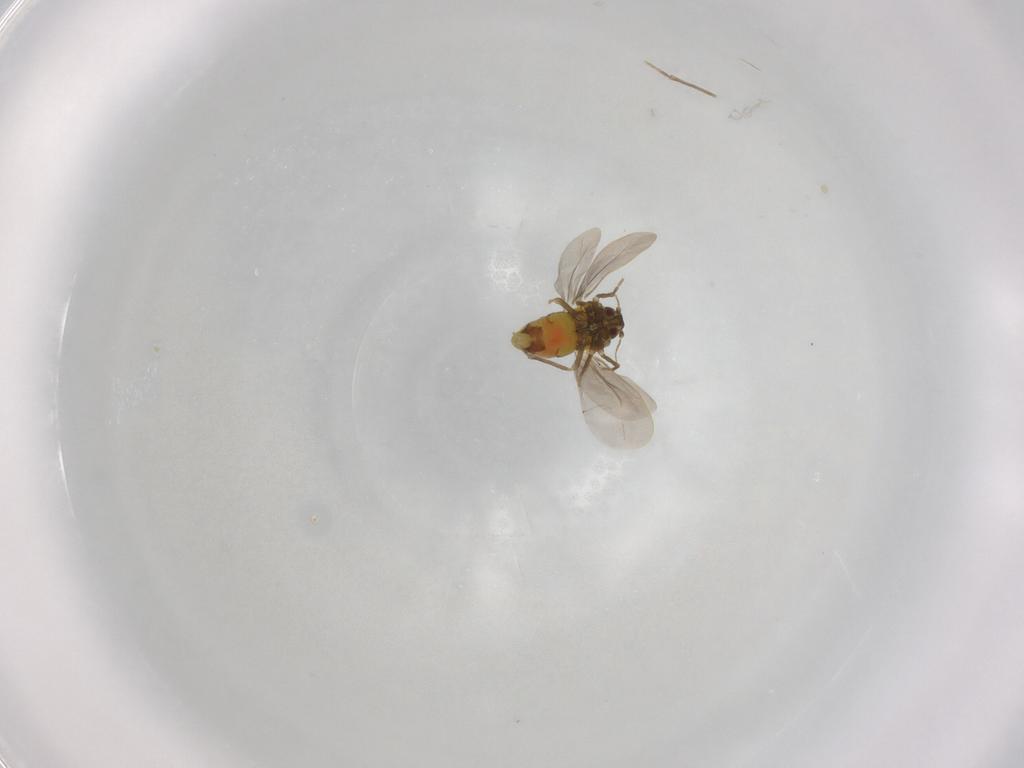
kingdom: Animalia
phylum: Arthropoda
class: Insecta
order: Hemiptera
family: Aleyrodidae
